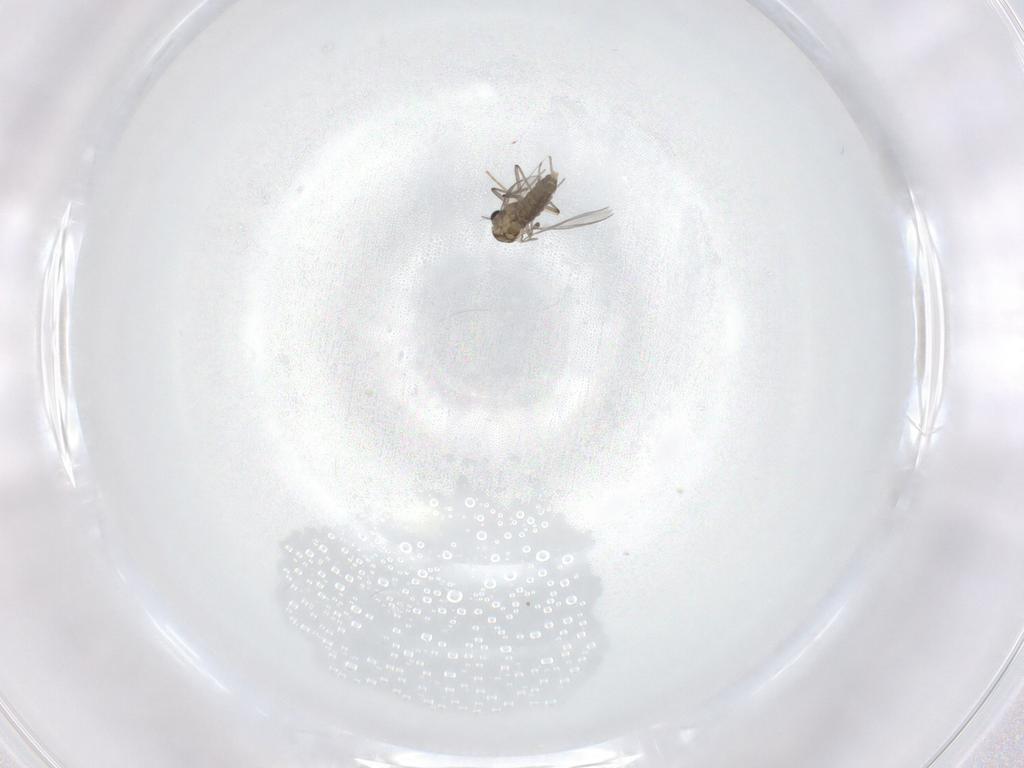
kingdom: Animalia
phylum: Arthropoda
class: Insecta
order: Diptera
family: Chironomidae
